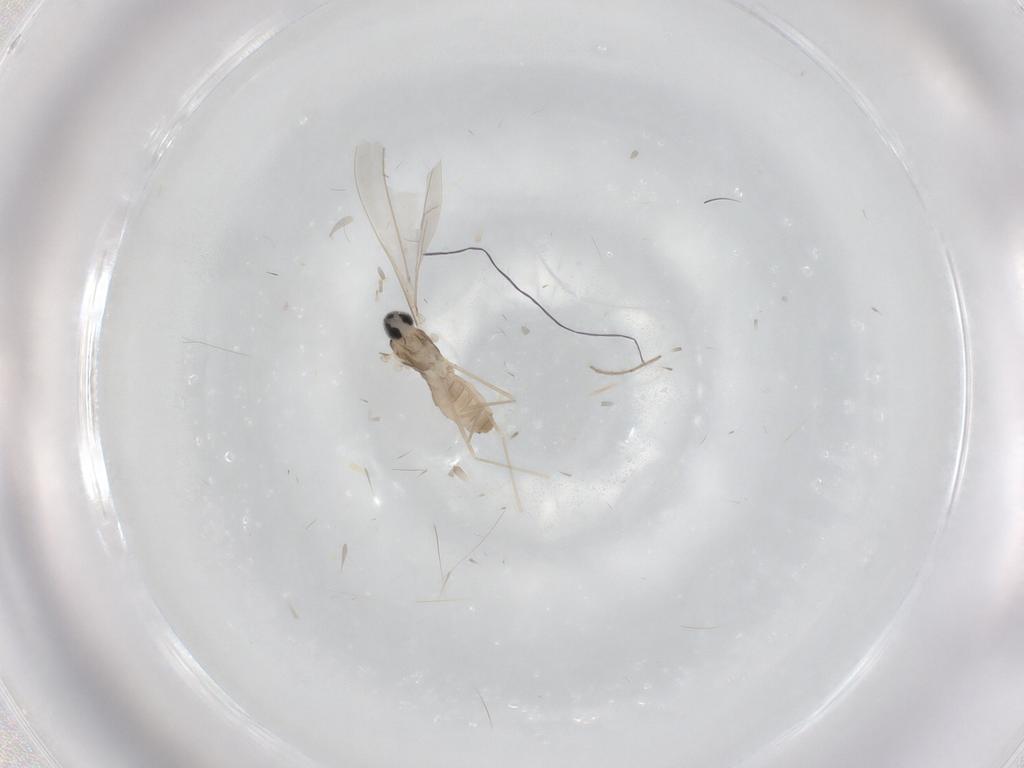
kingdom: Animalia
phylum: Arthropoda
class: Insecta
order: Diptera
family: Cecidomyiidae
